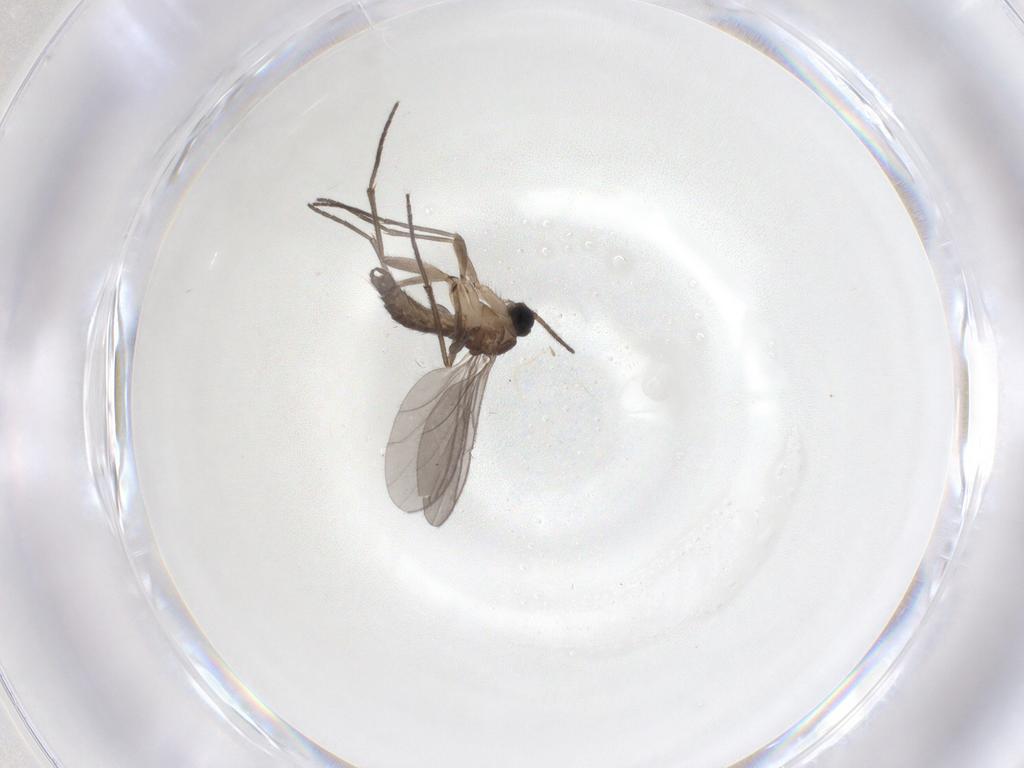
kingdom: Animalia
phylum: Arthropoda
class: Insecta
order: Diptera
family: Sciaridae
